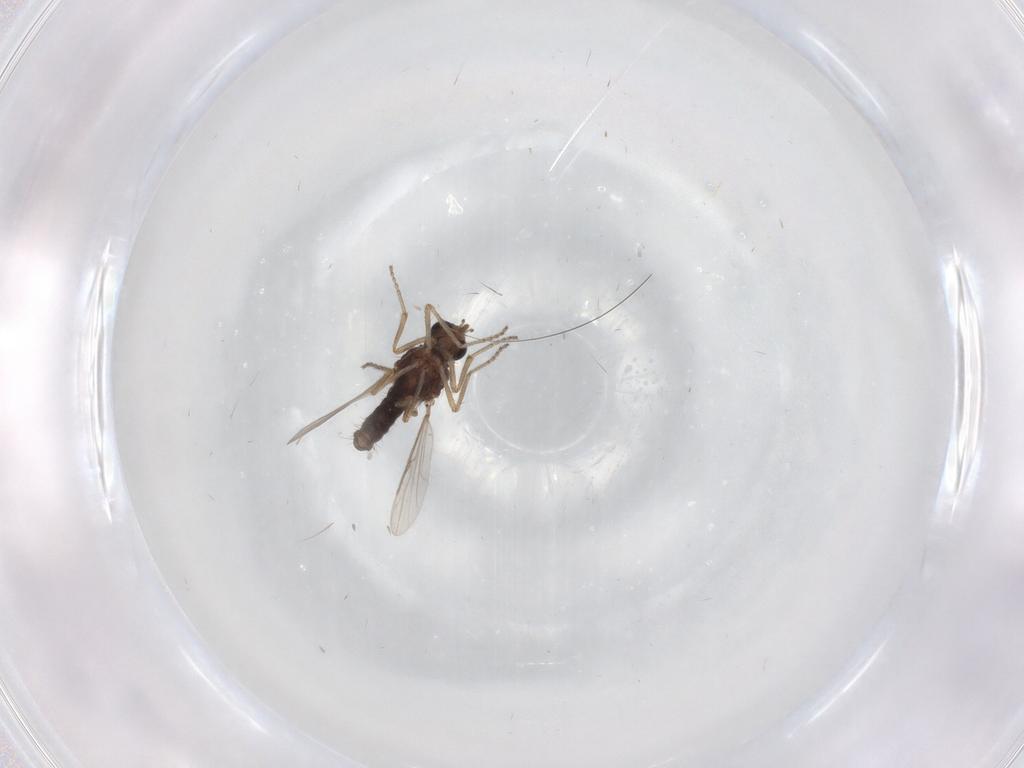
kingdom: Animalia
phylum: Arthropoda
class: Insecta
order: Diptera
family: Ceratopogonidae
